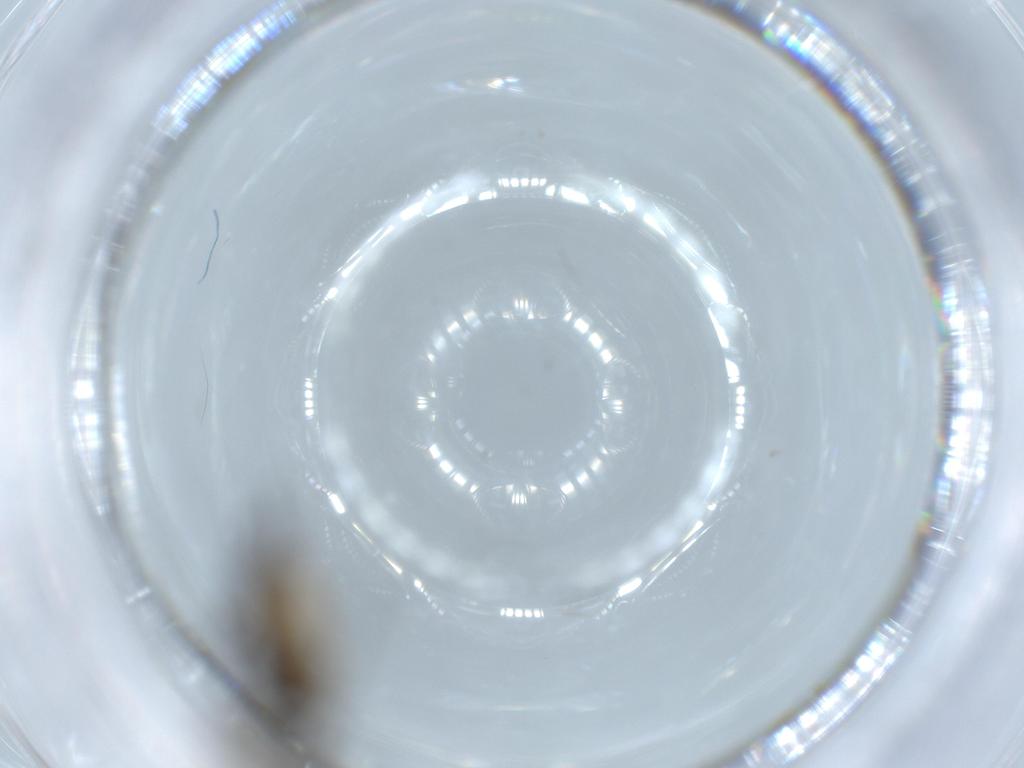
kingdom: Animalia
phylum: Arthropoda
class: Insecta
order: Diptera
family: Sciaridae
